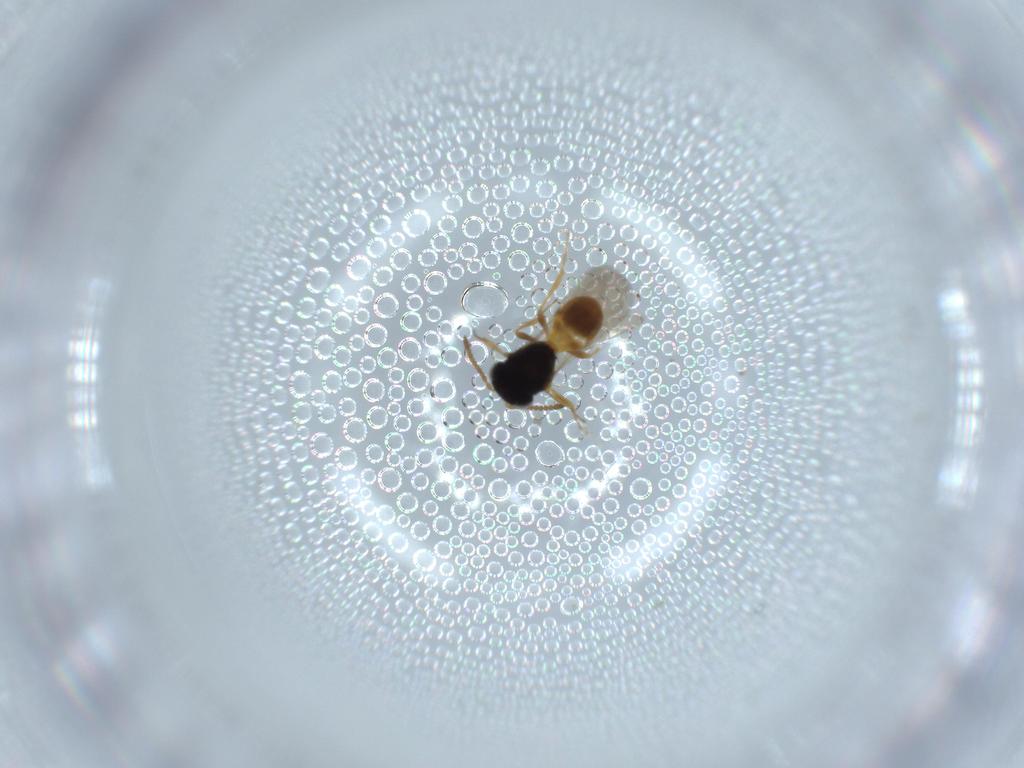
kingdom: Animalia
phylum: Arthropoda
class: Insecta
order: Hymenoptera
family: Scelionidae
